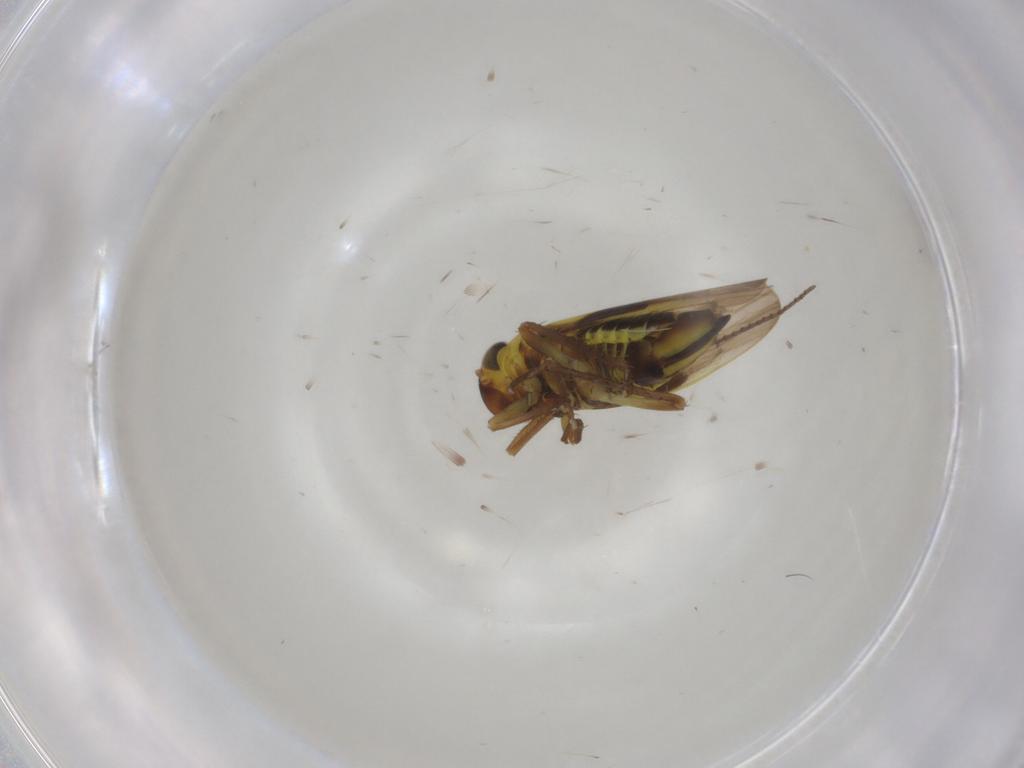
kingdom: Animalia
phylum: Arthropoda
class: Insecta
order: Hemiptera
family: Cicadellidae
